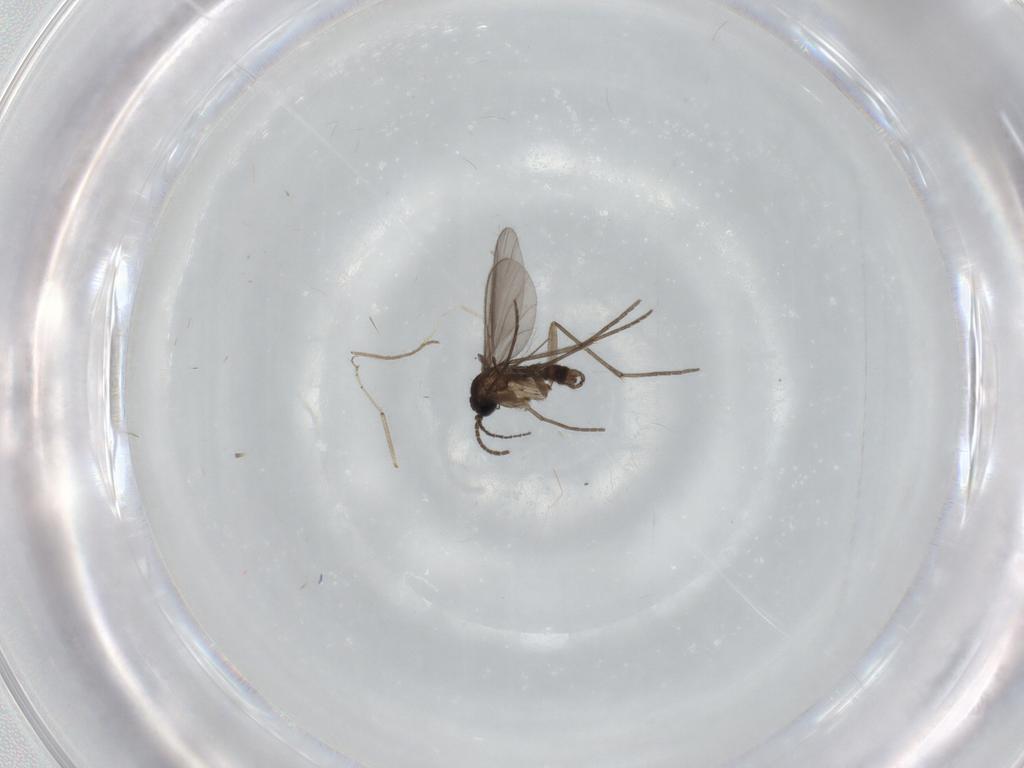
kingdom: Animalia
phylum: Arthropoda
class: Insecta
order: Diptera
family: Sciaridae
